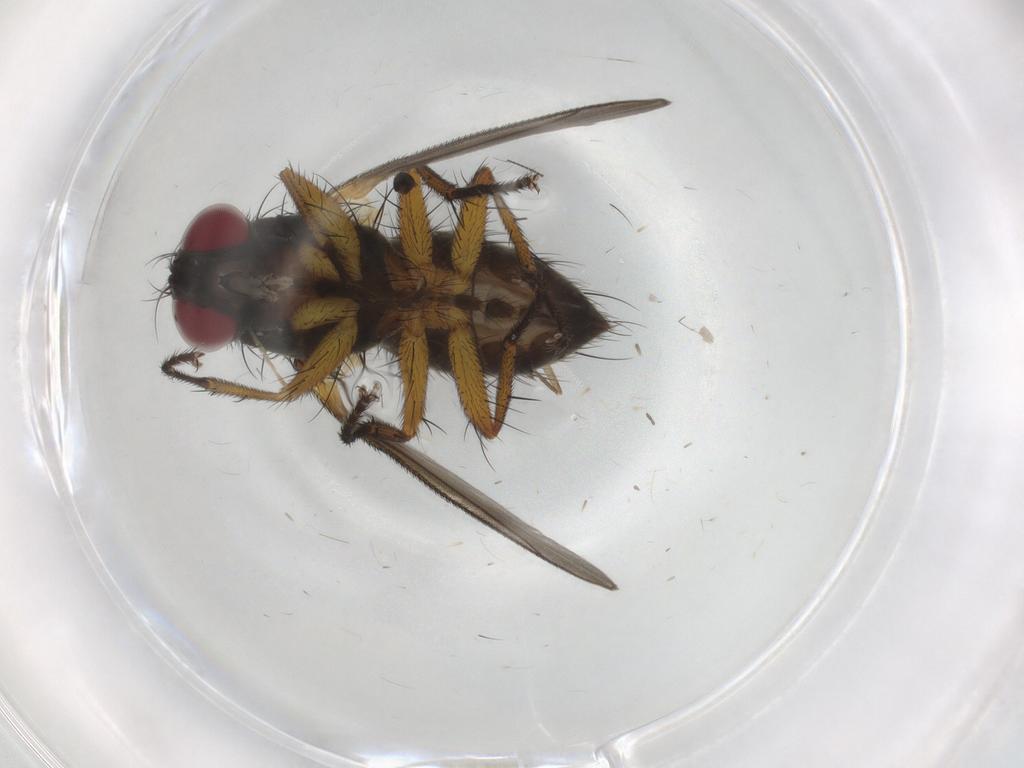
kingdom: Animalia
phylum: Arthropoda
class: Insecta
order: Diptera
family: Muscidae
